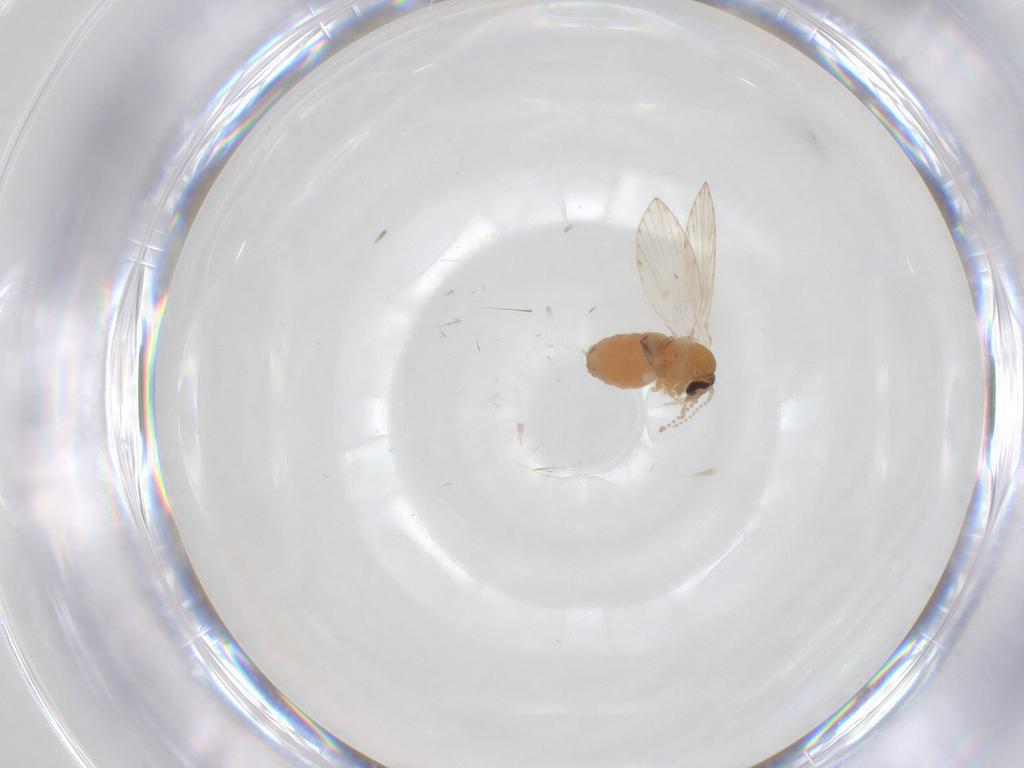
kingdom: Animalia
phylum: Arthropoda
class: Insecta
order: Diptera
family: Psychodidae
